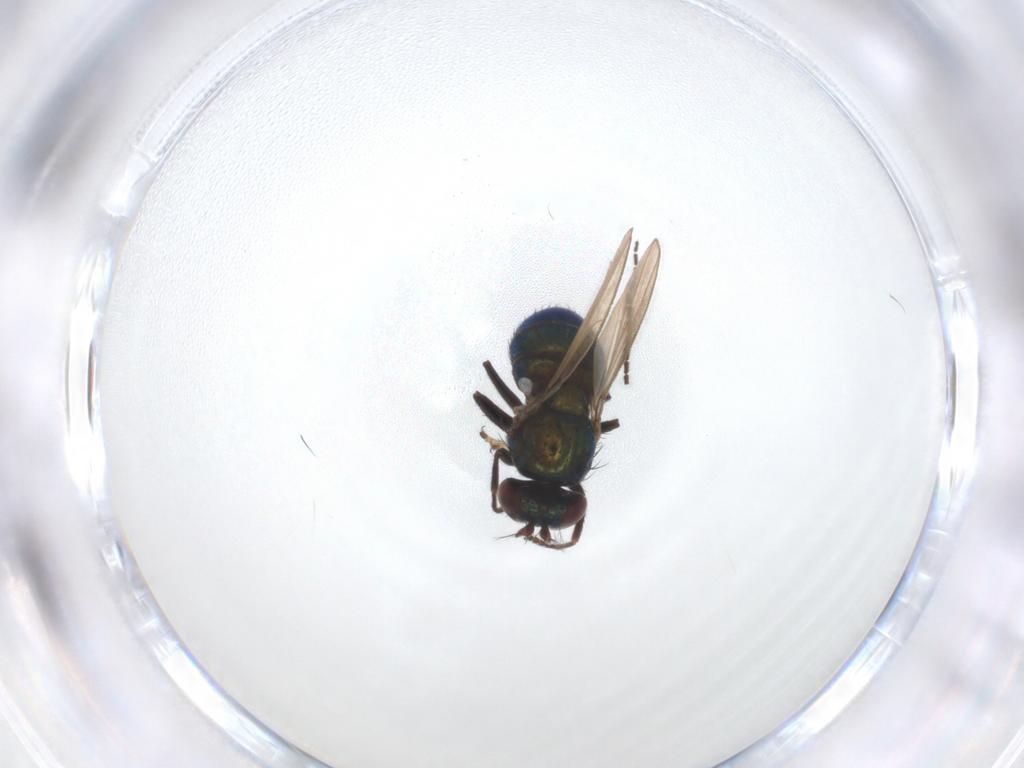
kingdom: Animalia
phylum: Arthropoda
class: Insecta
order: Diptera
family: Ephydridae
